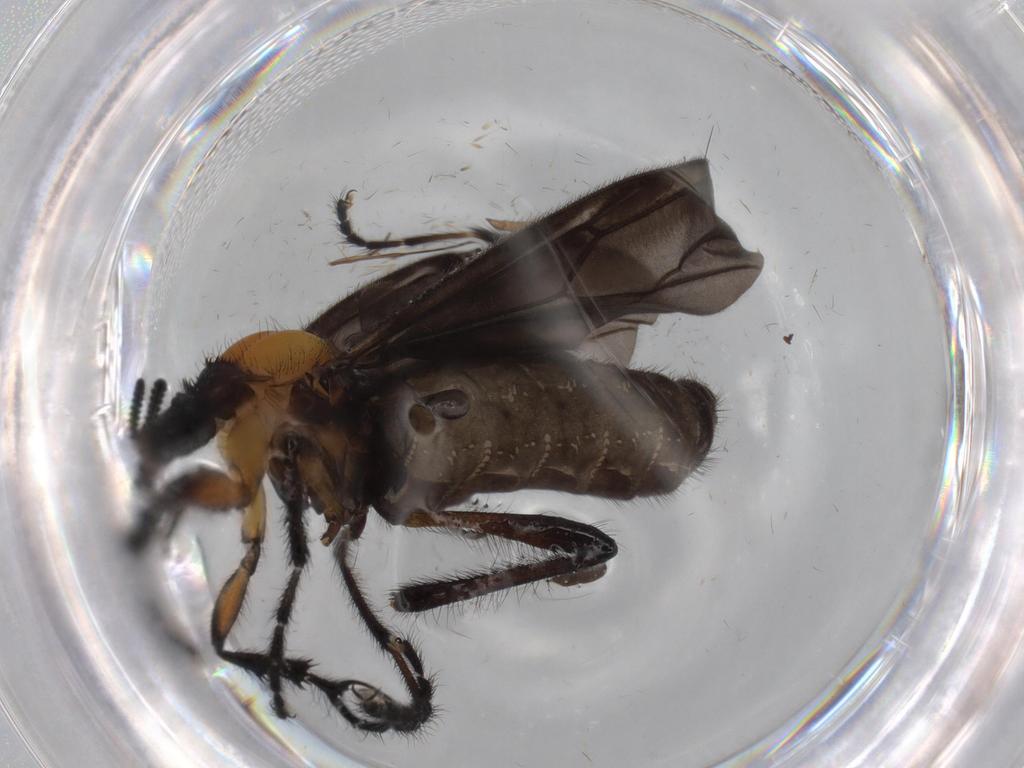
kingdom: Animalia
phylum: Arthropoda
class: Insecta
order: Diptera
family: Bibionidae
